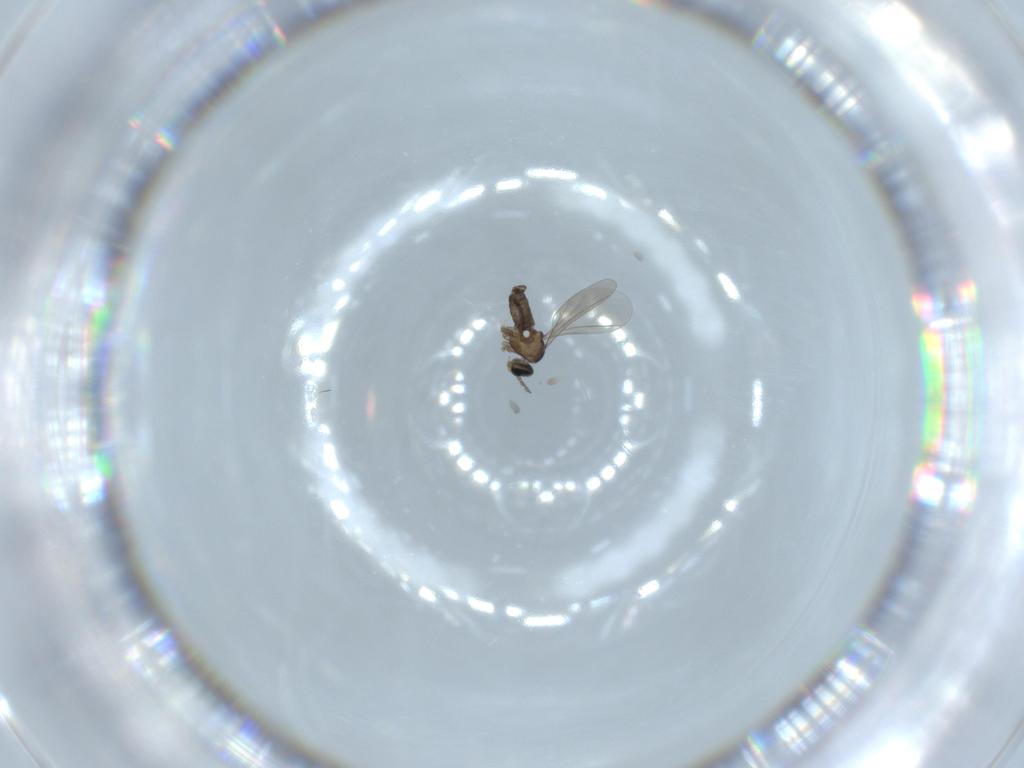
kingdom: Animalia
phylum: Arthropoda
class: Insecta
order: Diptera
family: Cecidomyiidae
